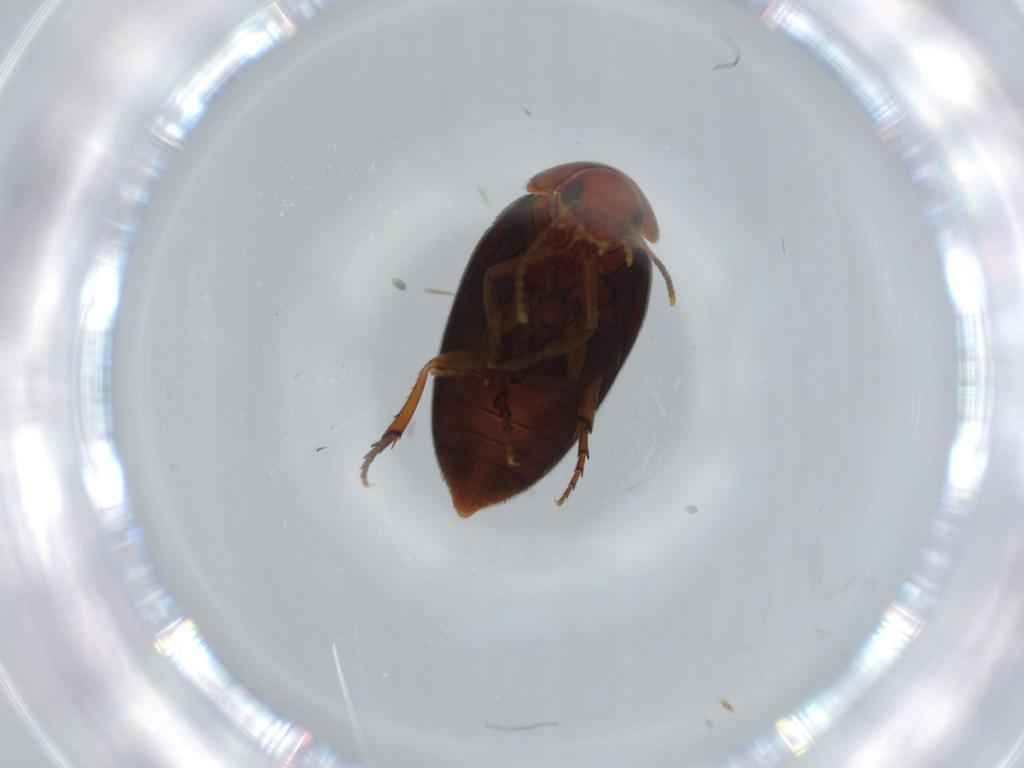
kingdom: Animalia
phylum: Arthropoda
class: Insecta
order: Coleoptera
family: Eucinetidae
